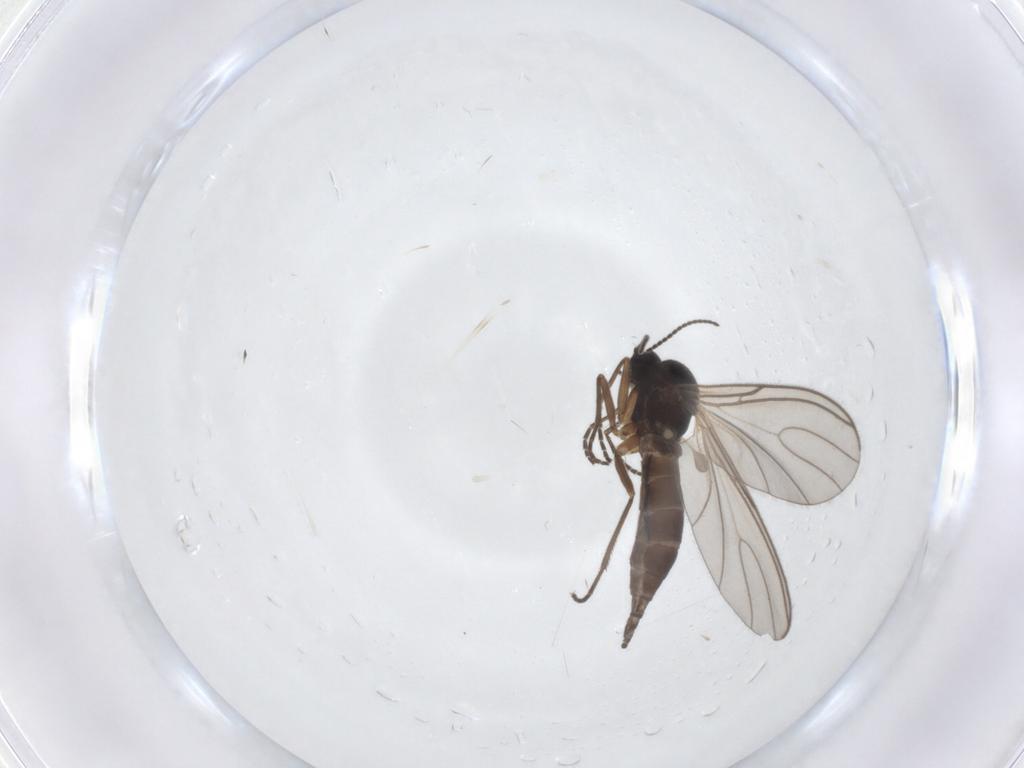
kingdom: Animalia
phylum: Arthropoda
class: Insecta
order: Diptera
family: Sciaridae
